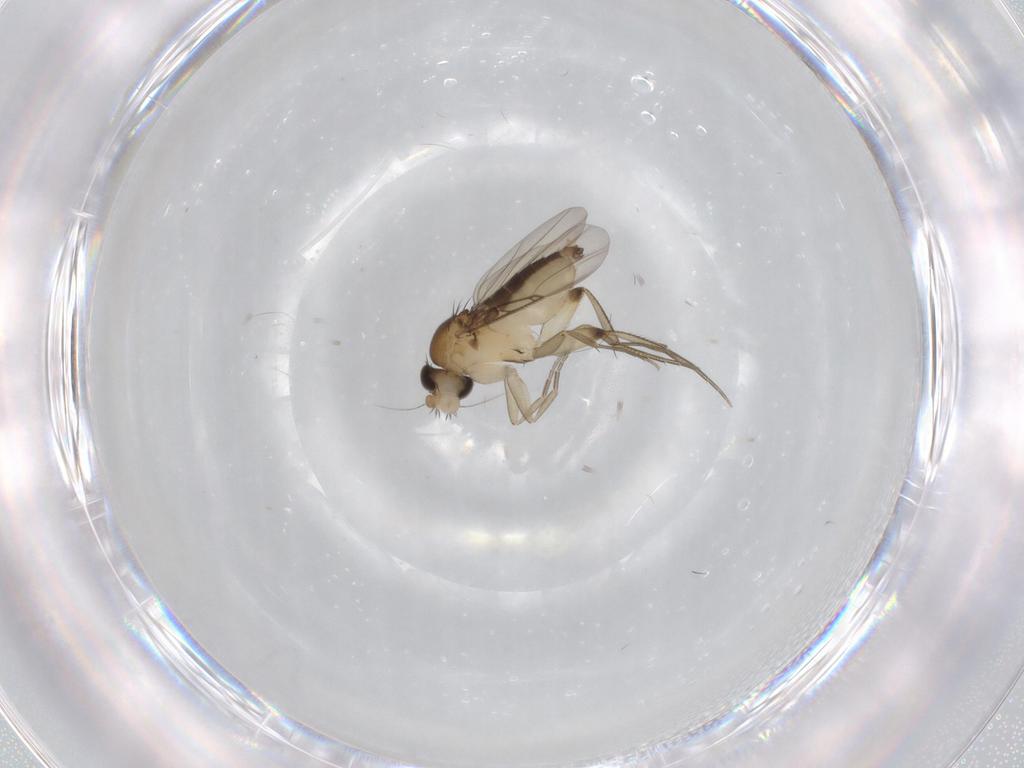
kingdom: Animalia
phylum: Arthropoda
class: Insecta
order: Diptera
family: Phoridae
